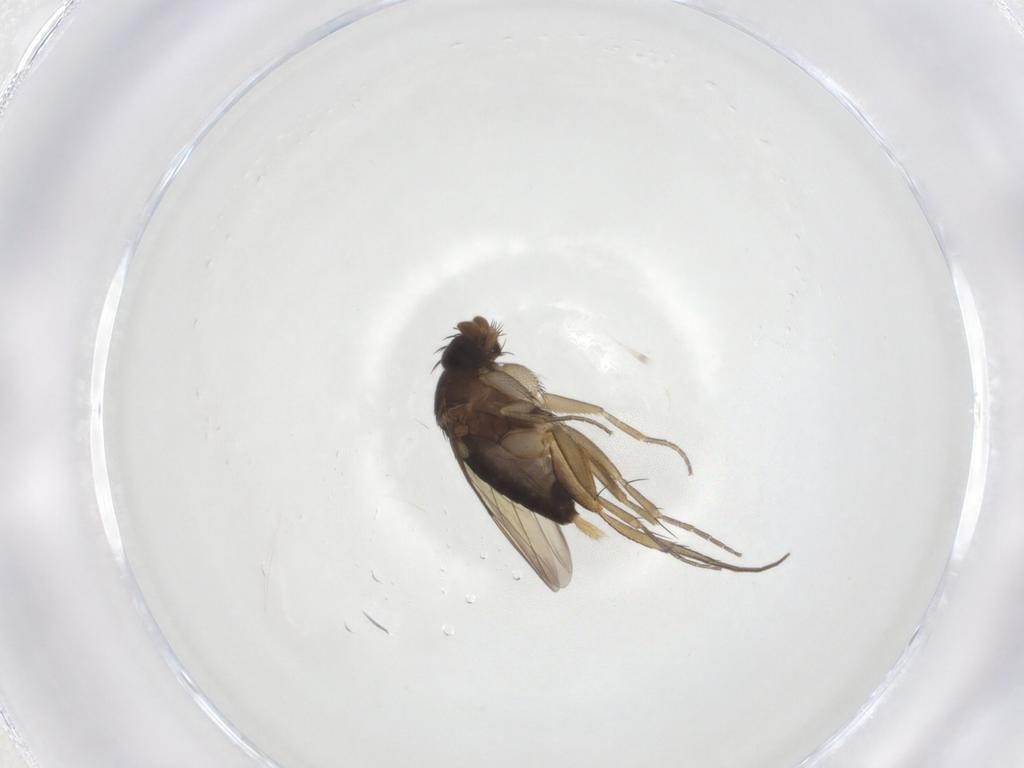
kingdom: Animalia
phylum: Arthropoda
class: Insecta
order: Diptera
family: Phoridae
